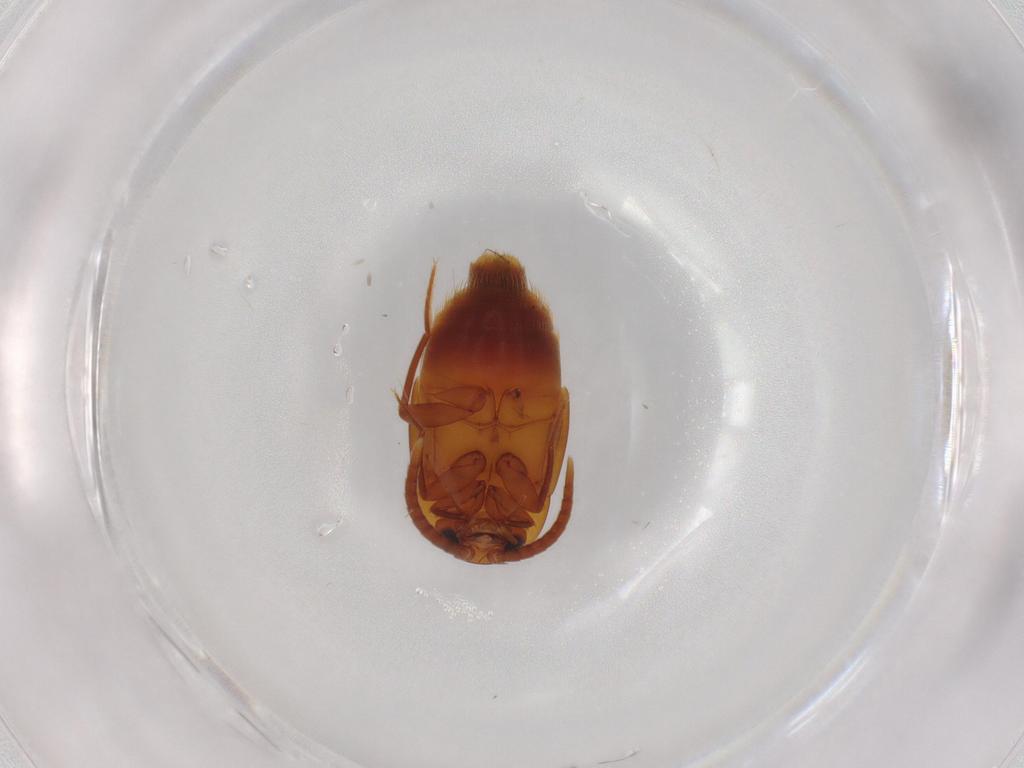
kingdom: Animalia
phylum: Arthropoda
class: Insecta
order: Coleoptera
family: Staphylinidae
